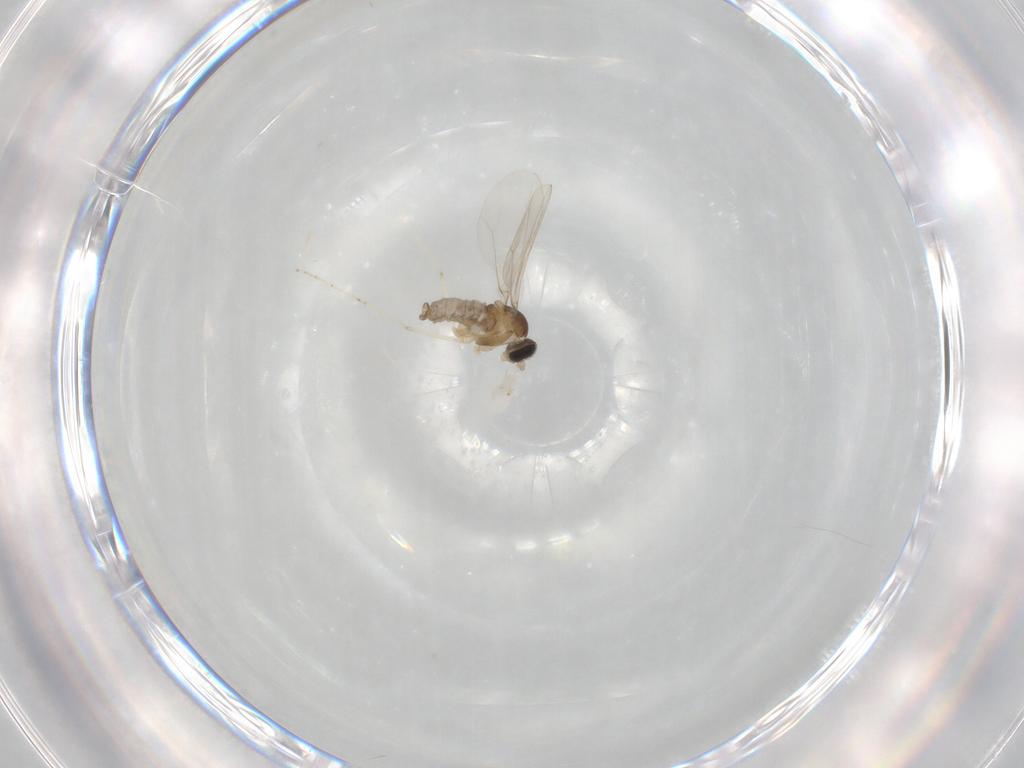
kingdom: Animalia
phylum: Arthropoda
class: Insecta
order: Diptera
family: Cecidomyiidae
